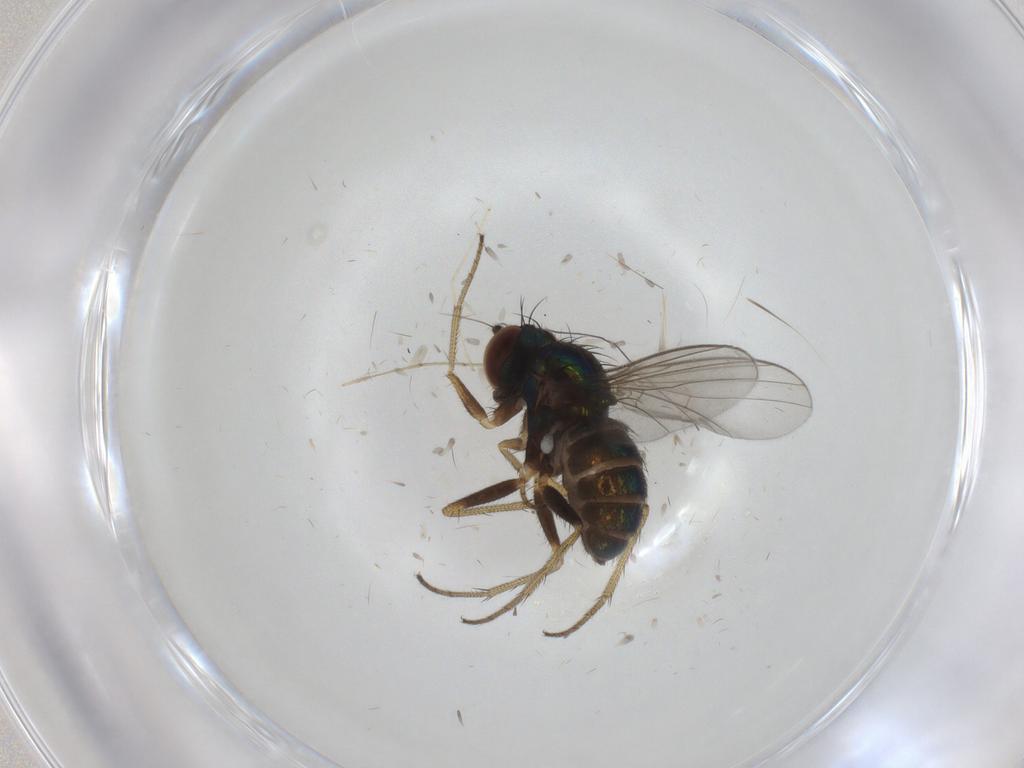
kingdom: Animalia
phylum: Arthropoda
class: Insecta
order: Diptera
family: Dolichopodidae
